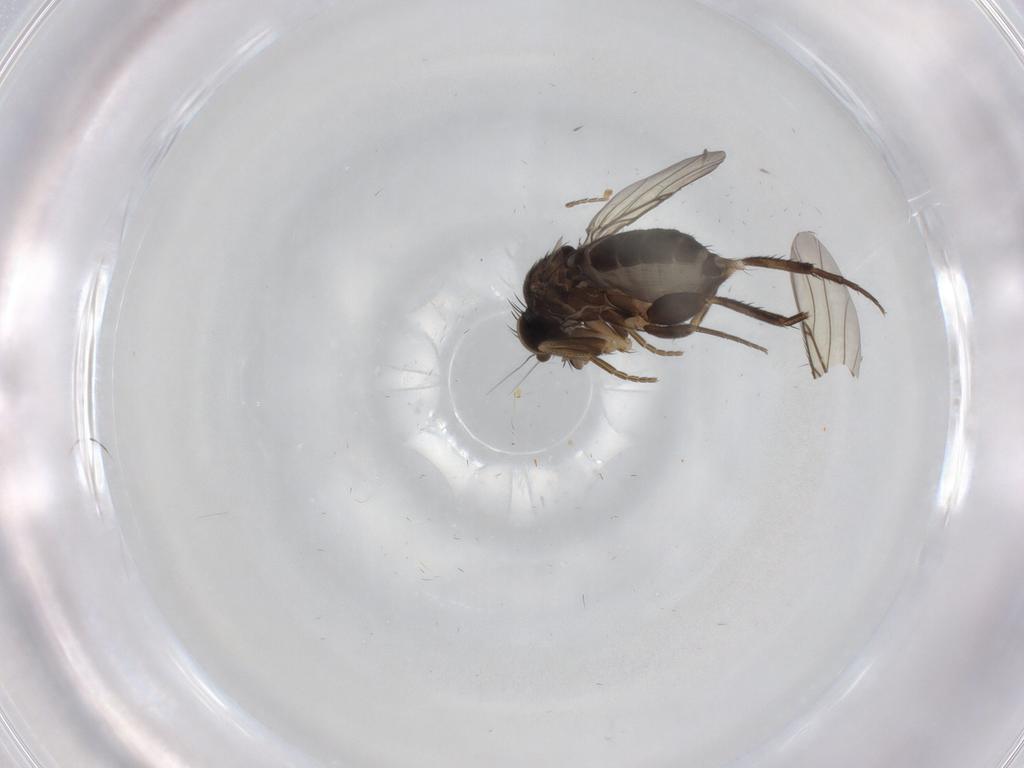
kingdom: Animalia
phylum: Arthropoda
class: Insecta
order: Diptera
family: Phoridae
